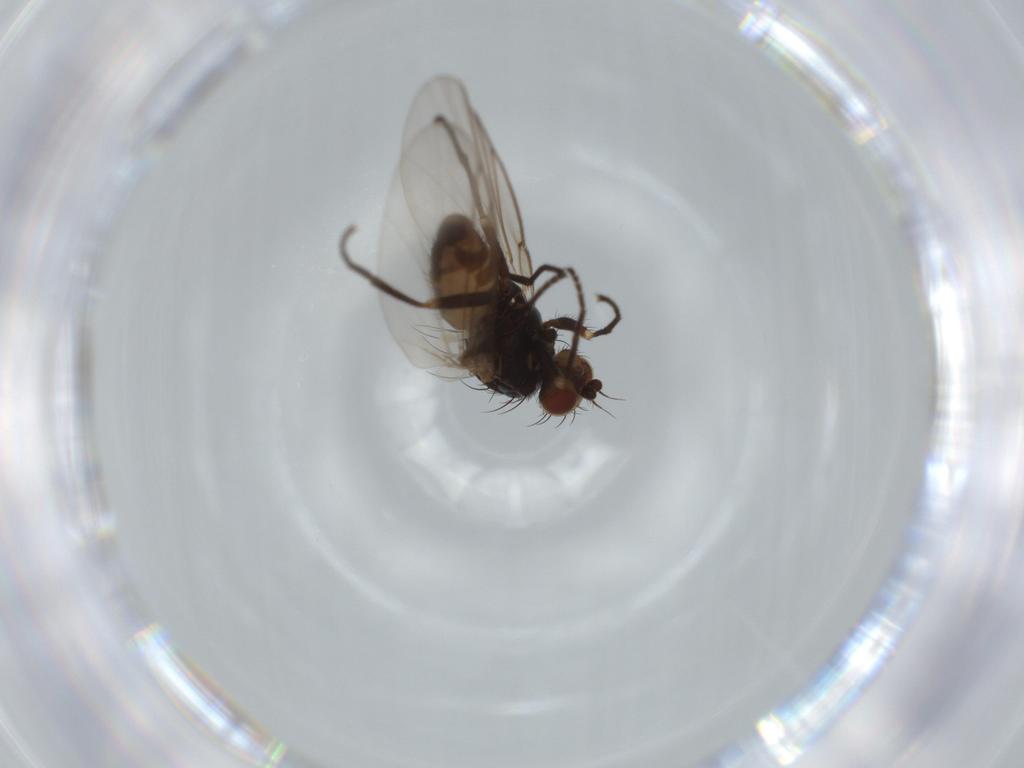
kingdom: Animalia
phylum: Arthropoda
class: Insecta
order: Diptera
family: Agromyzidae
